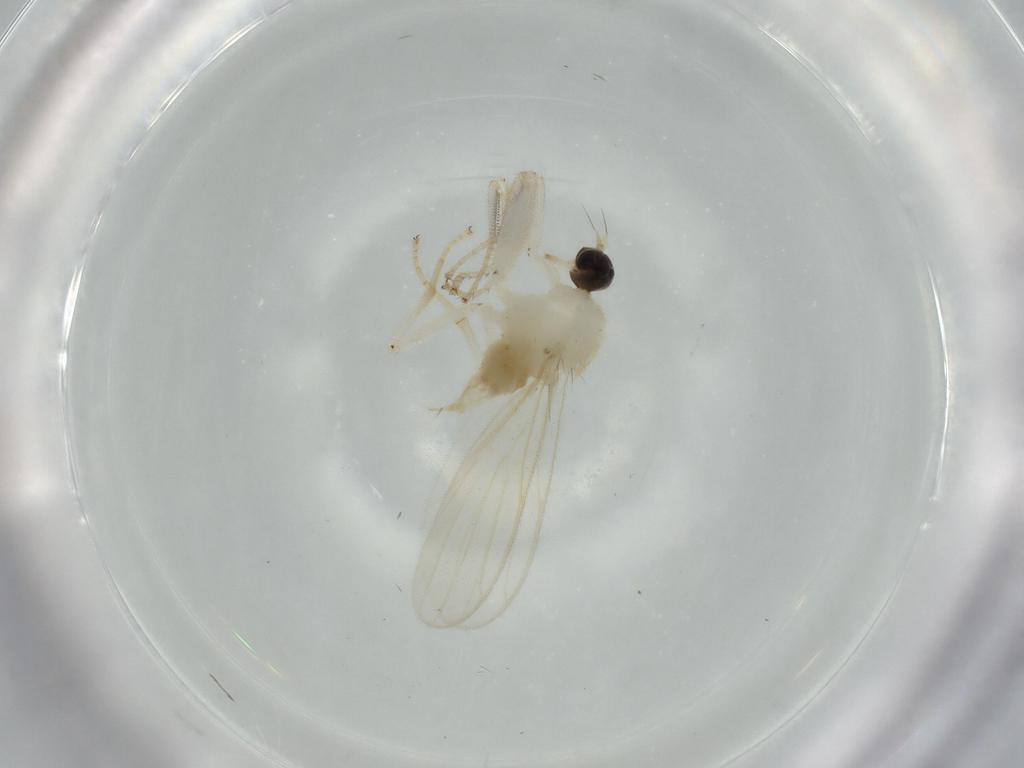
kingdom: Animalia
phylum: Arthropoda
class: Insecta
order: Diptera
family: Hybotidae
